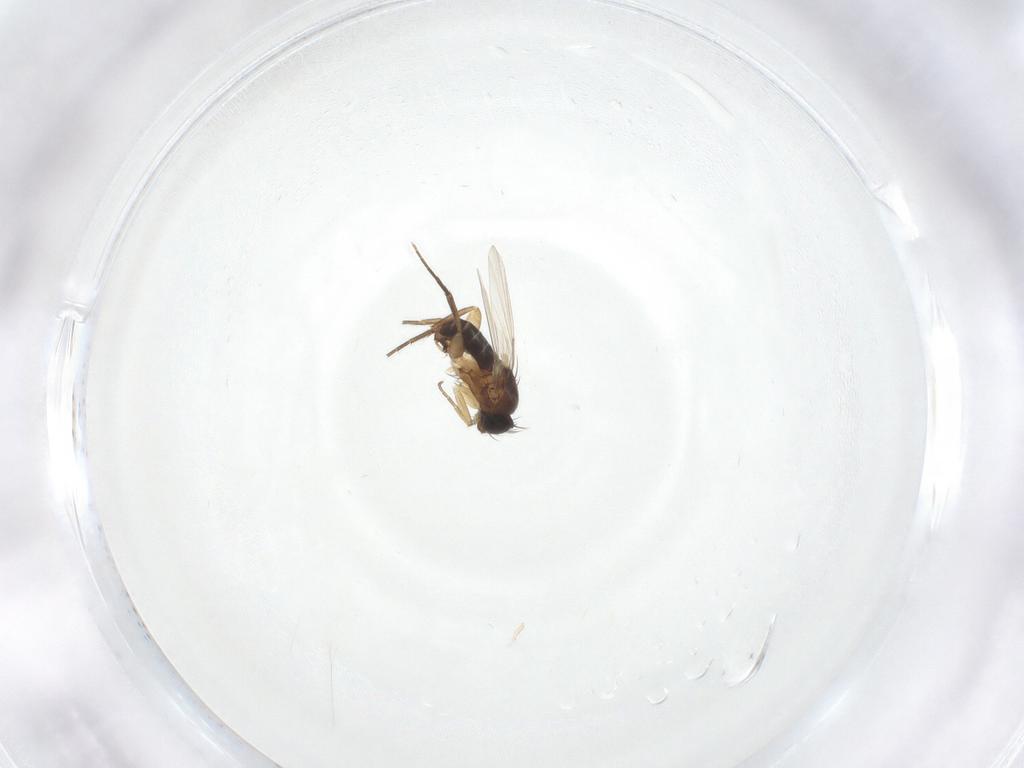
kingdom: Animalia
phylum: Arthropoda
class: Insecta
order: Diptera
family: Phoridae
